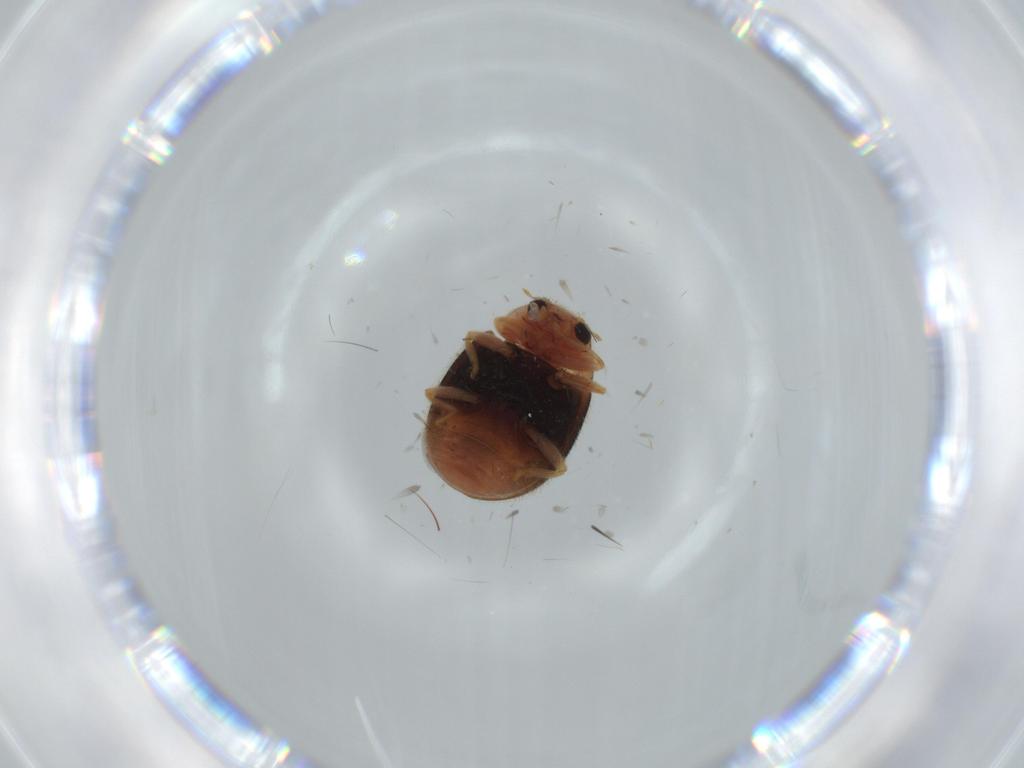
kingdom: Animalia
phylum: Arthropoda
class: Insecta
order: Coleoptera
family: Coccinellidae
